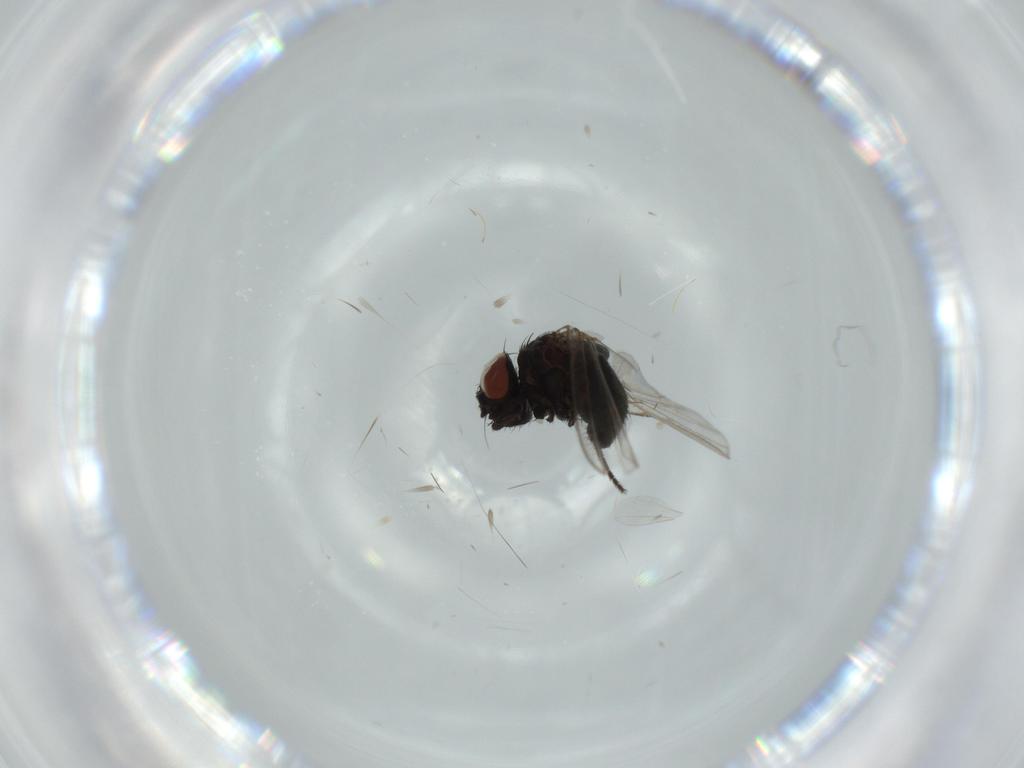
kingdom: Animalia
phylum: Arthropoda
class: Insecta
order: Diptera
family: Milichiidae
